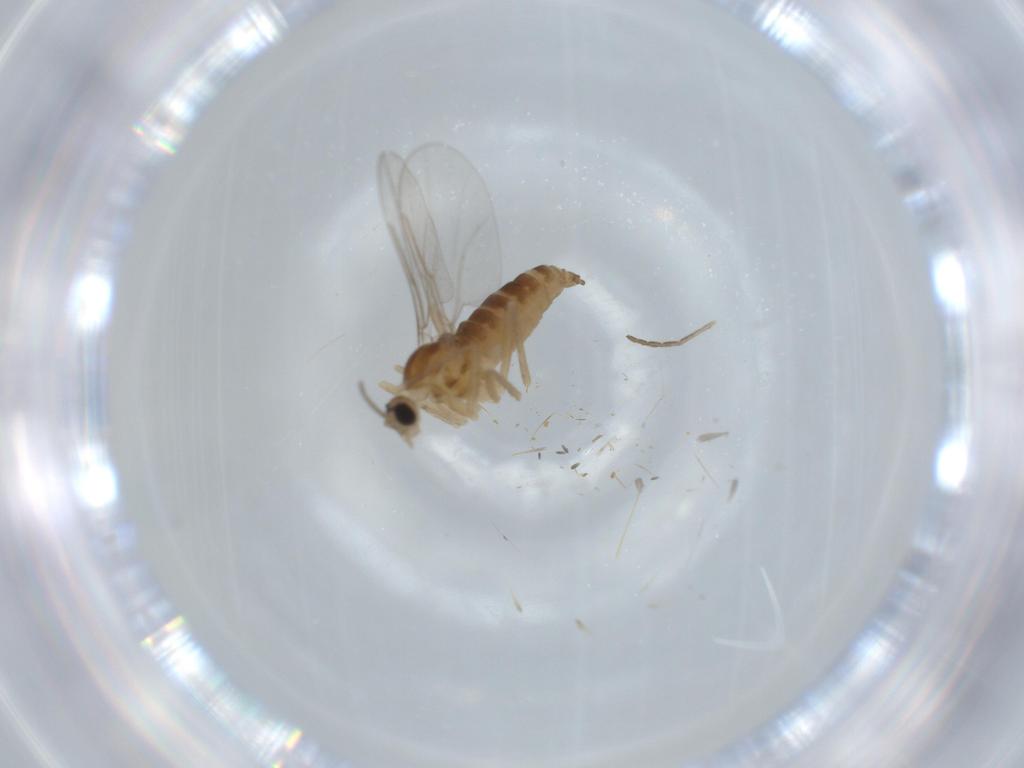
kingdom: Animalia
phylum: Arthropoda
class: Insecta
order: Diptera
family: Cecidomyiidae
